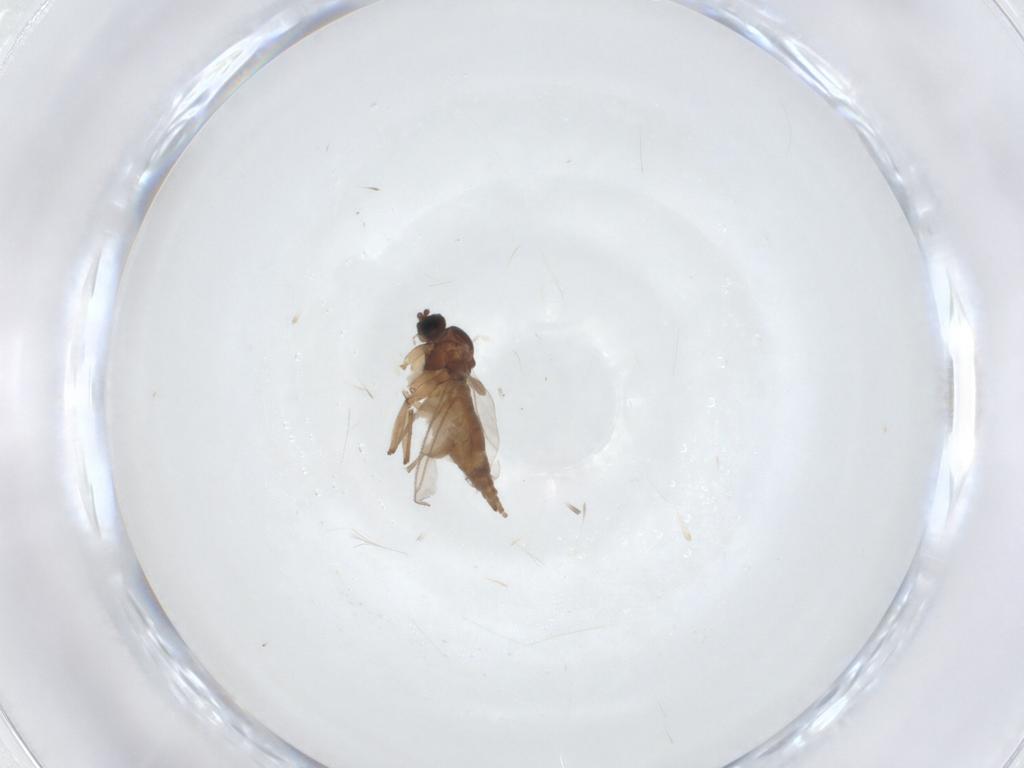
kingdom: Animalia
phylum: Arthropoda
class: Insecta
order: Diptera
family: Sciaridae
